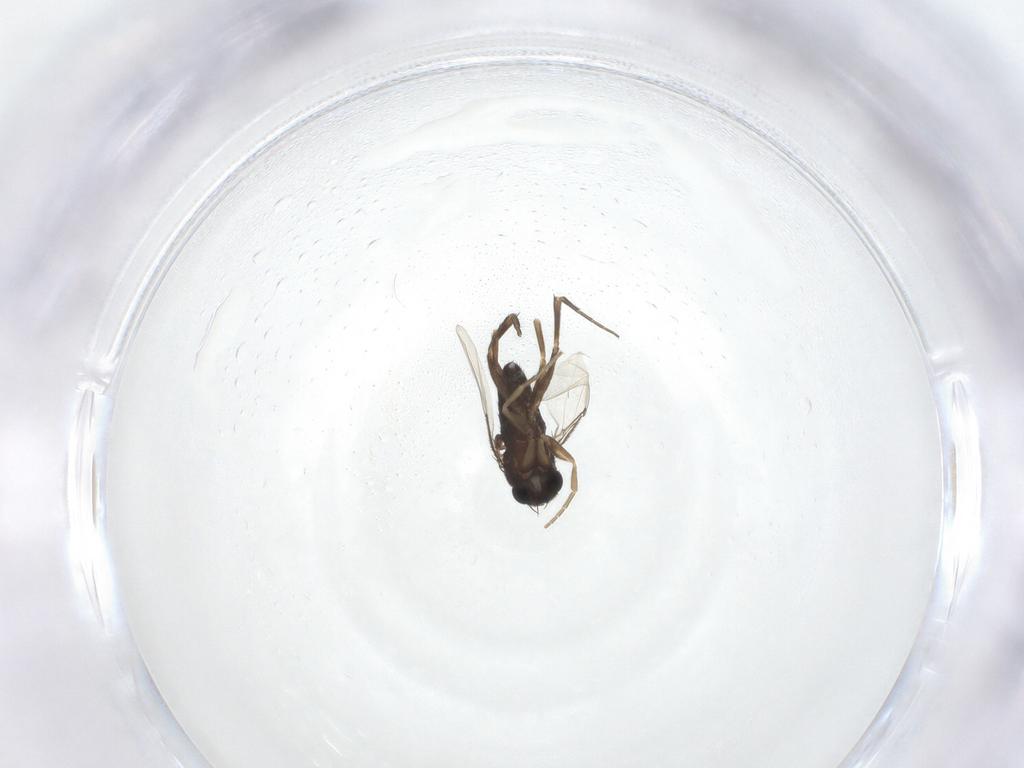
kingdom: Animalia
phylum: Arthropoda
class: Insecta
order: Diptera
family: Phoridae
